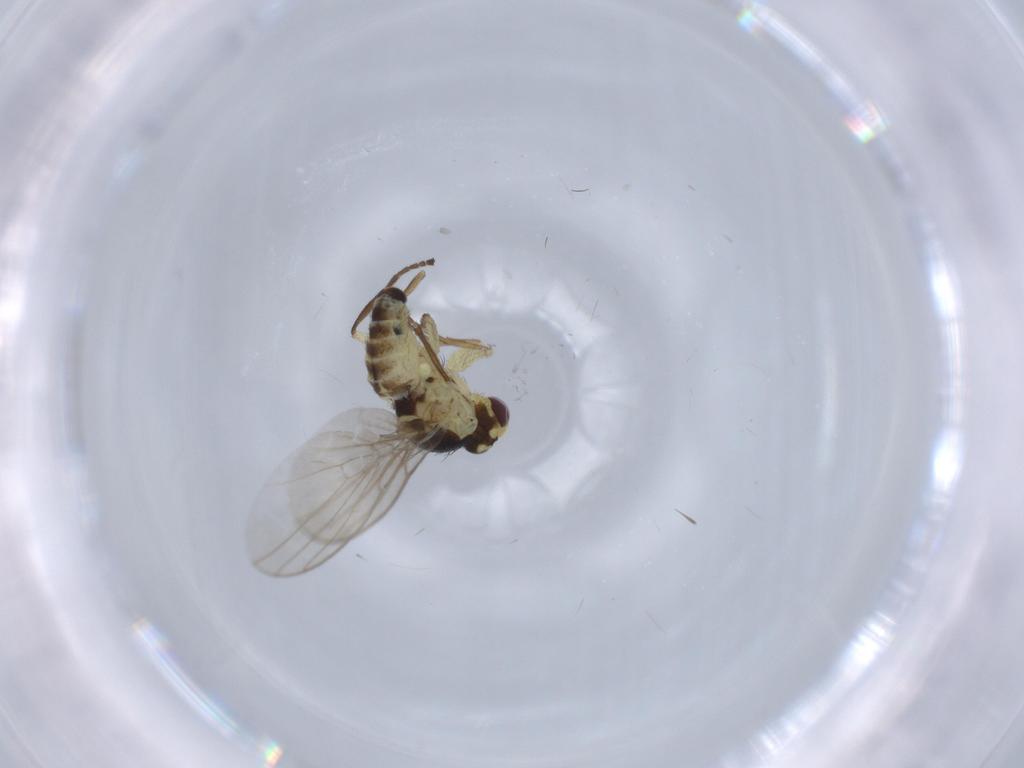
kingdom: Animalia
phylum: Arthropoda
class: Insecta
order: Diptera
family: Agromyzidae
